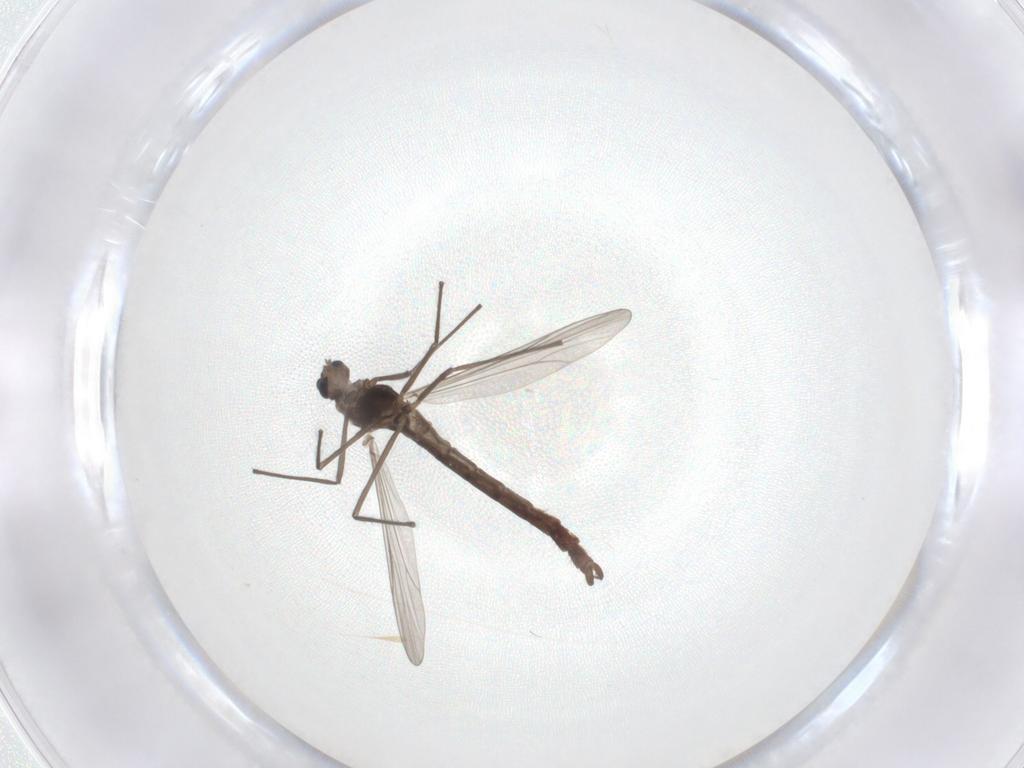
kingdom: Animalia
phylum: Arthropoda
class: Insecta
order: Diptera
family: Chironomidae
